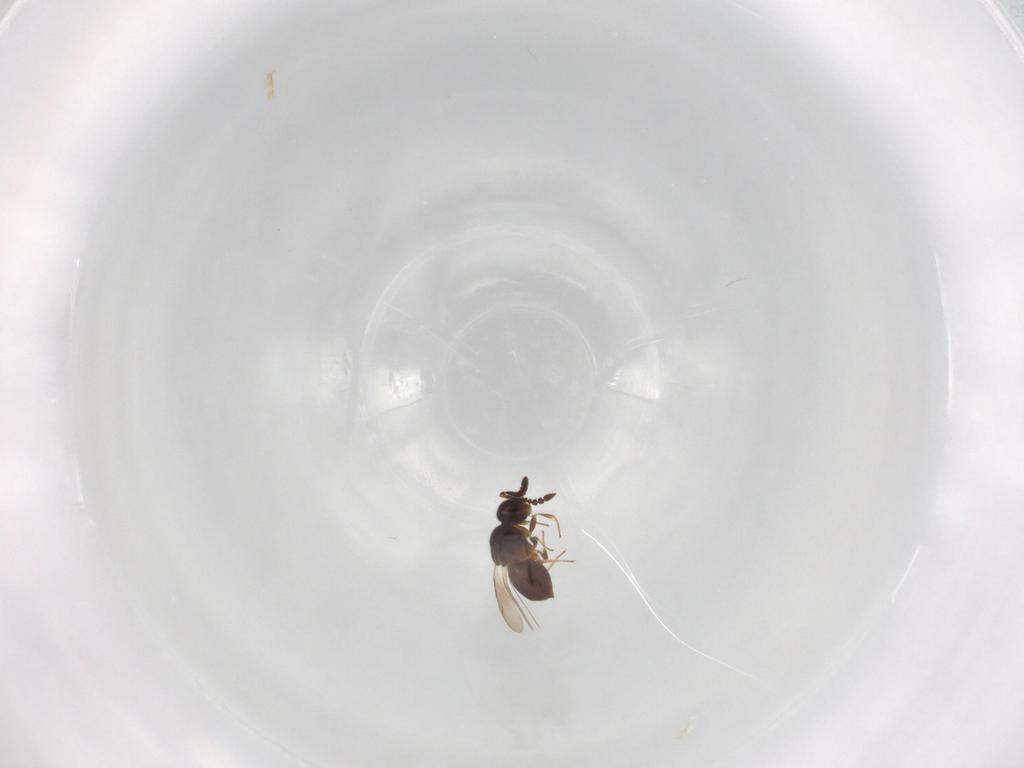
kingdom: Animalia
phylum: Arthropoda
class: Insecta
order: Hymenoptera
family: Ceraphronidae
